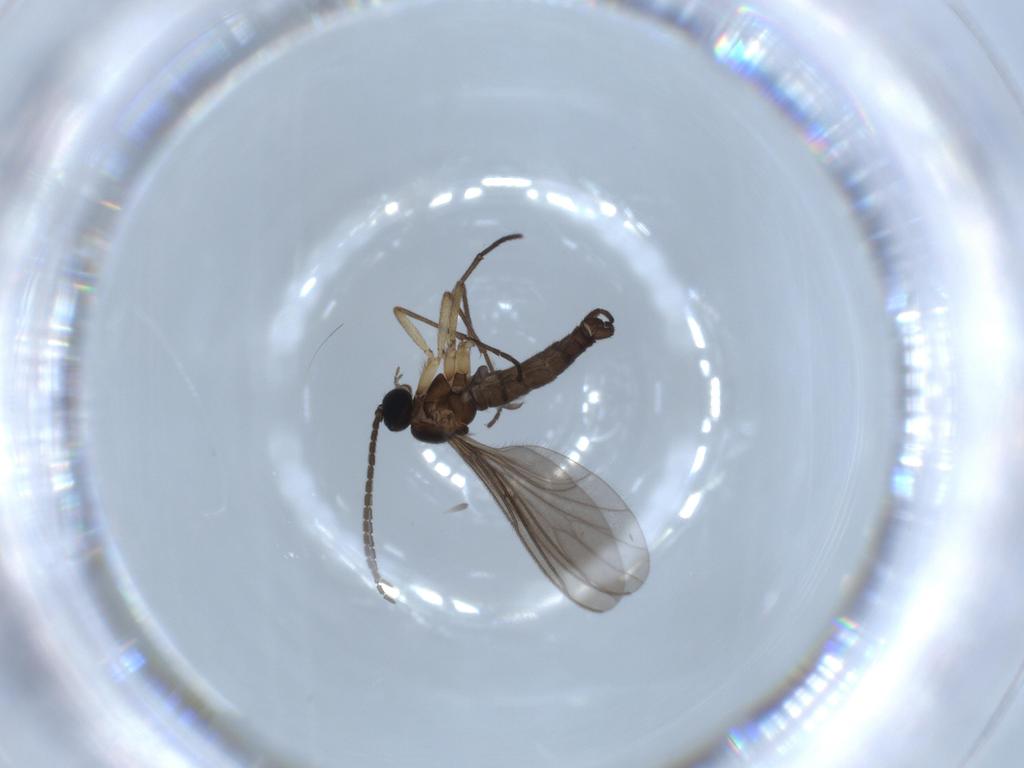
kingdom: Animalia
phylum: Arthropoda
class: Insecta
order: Diptera
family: Sciaridae
